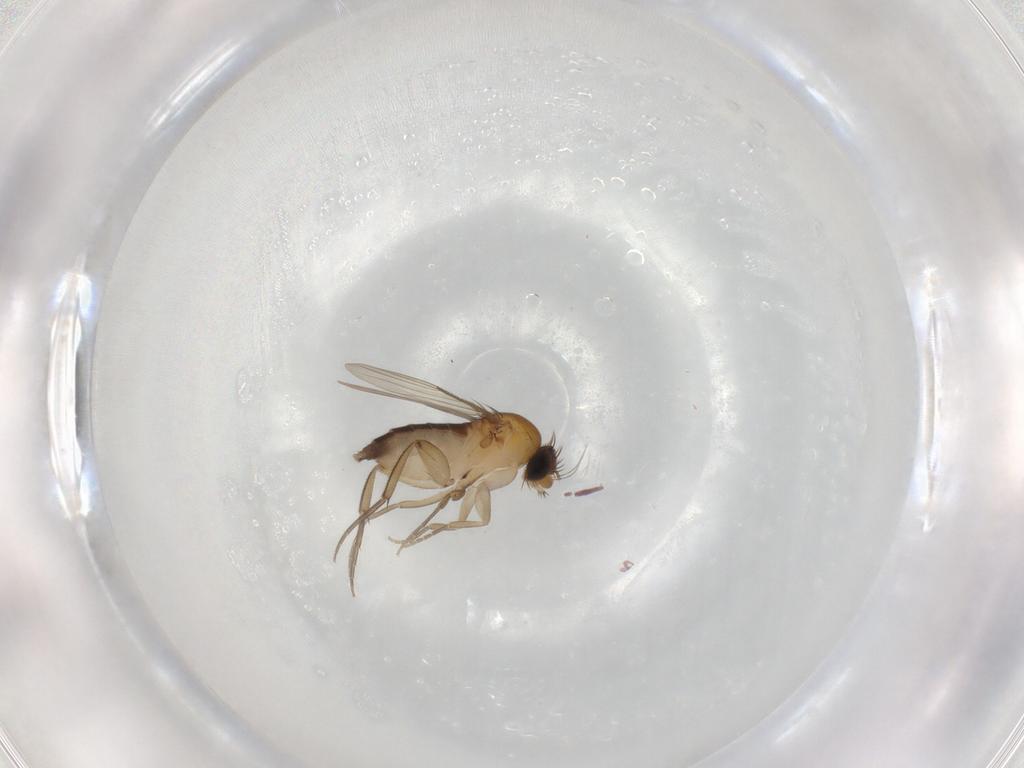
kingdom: Animalia
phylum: Arthropoda
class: Insecta
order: Diptera
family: Phoridae
